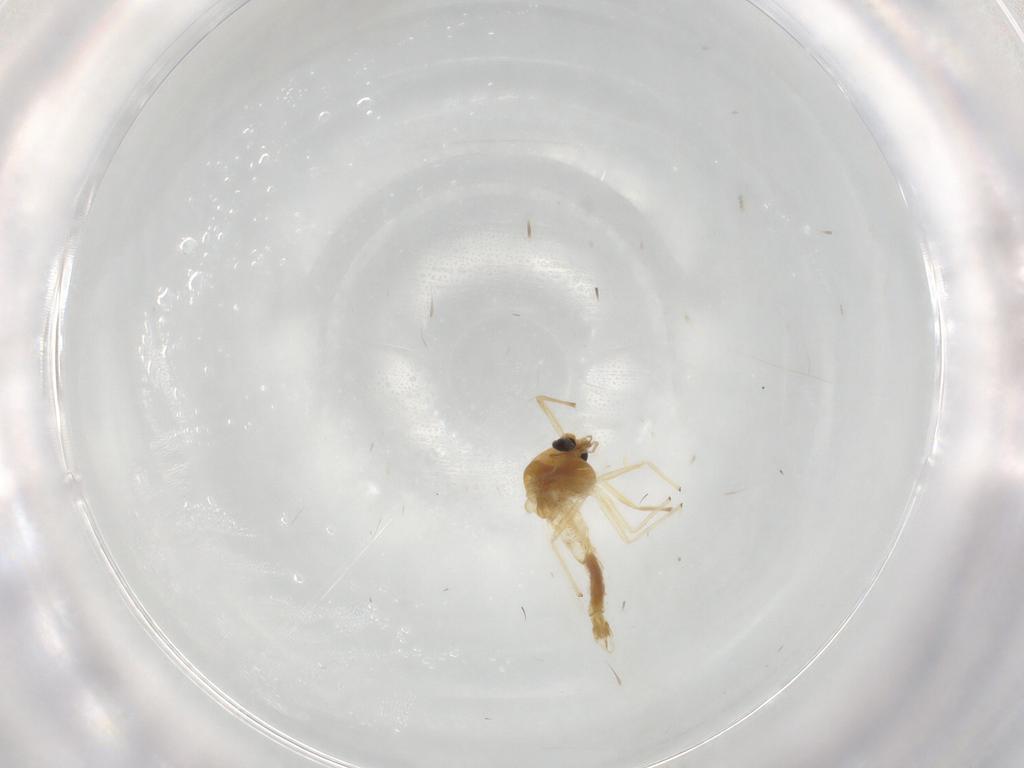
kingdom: Animalia
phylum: Arthropoda
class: Insecta
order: Diptera
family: Chironomidae
